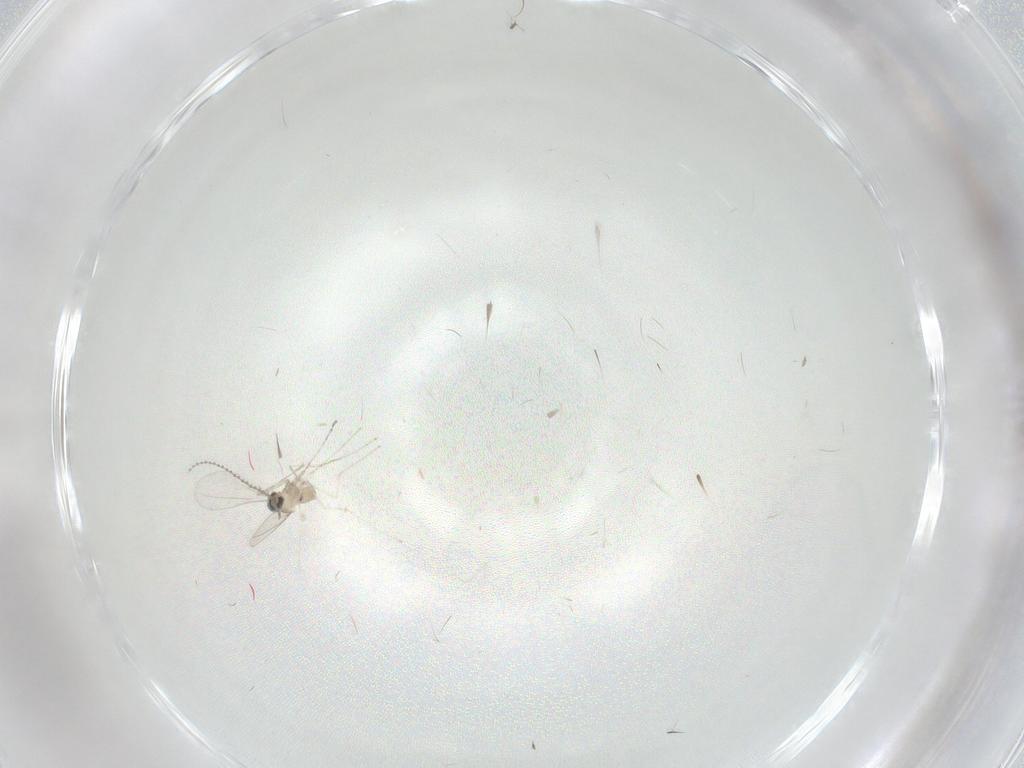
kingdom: Animalia
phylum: Arthropoda
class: Insecta
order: Diptera
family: Cecidomyiidae
